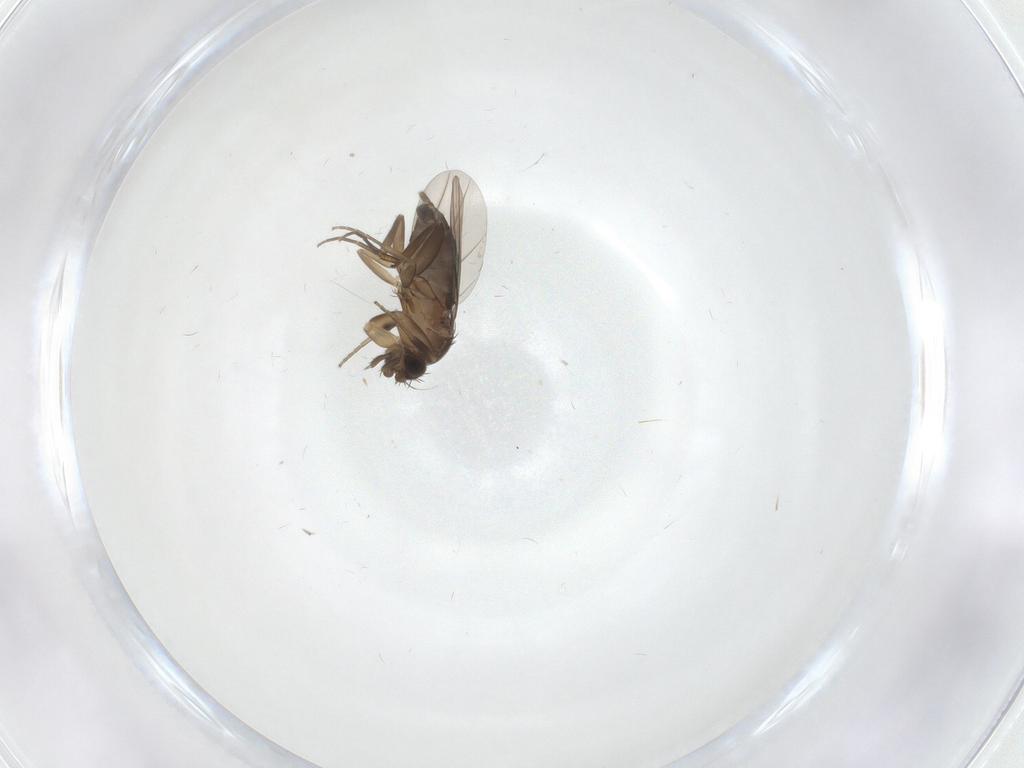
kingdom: Animalia
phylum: Arthropoda
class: Insecta
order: Diptera
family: Phoridae
